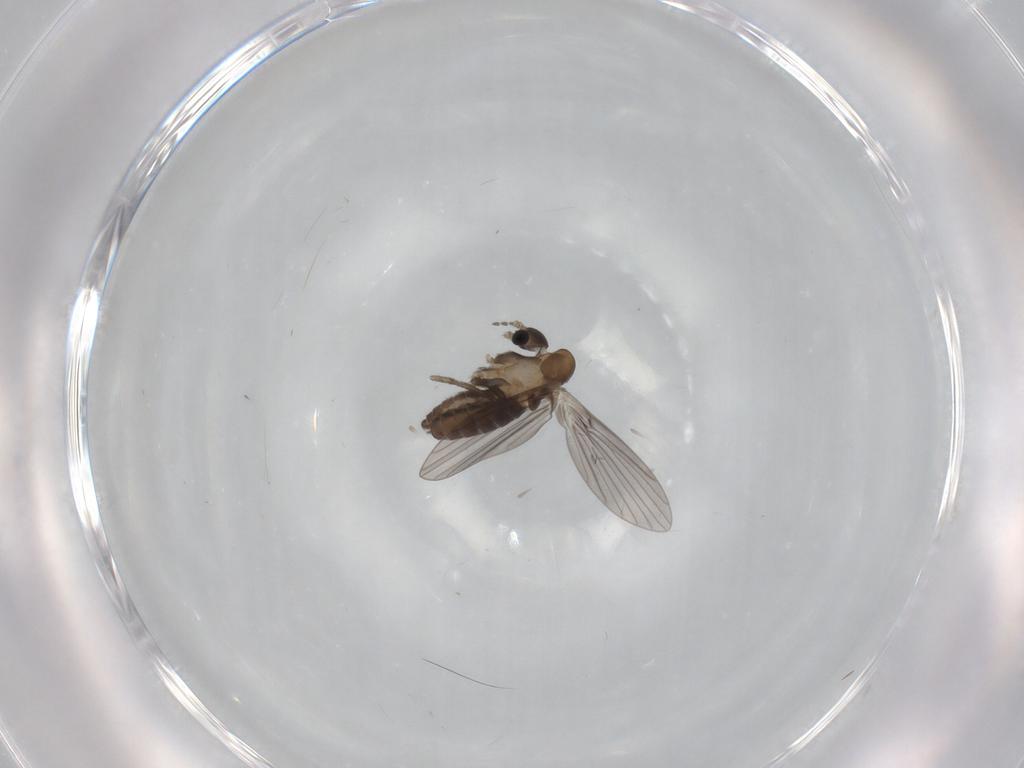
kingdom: Animalia
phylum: Arthropoda
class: Insecta
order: Diptera
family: Psychodidae
